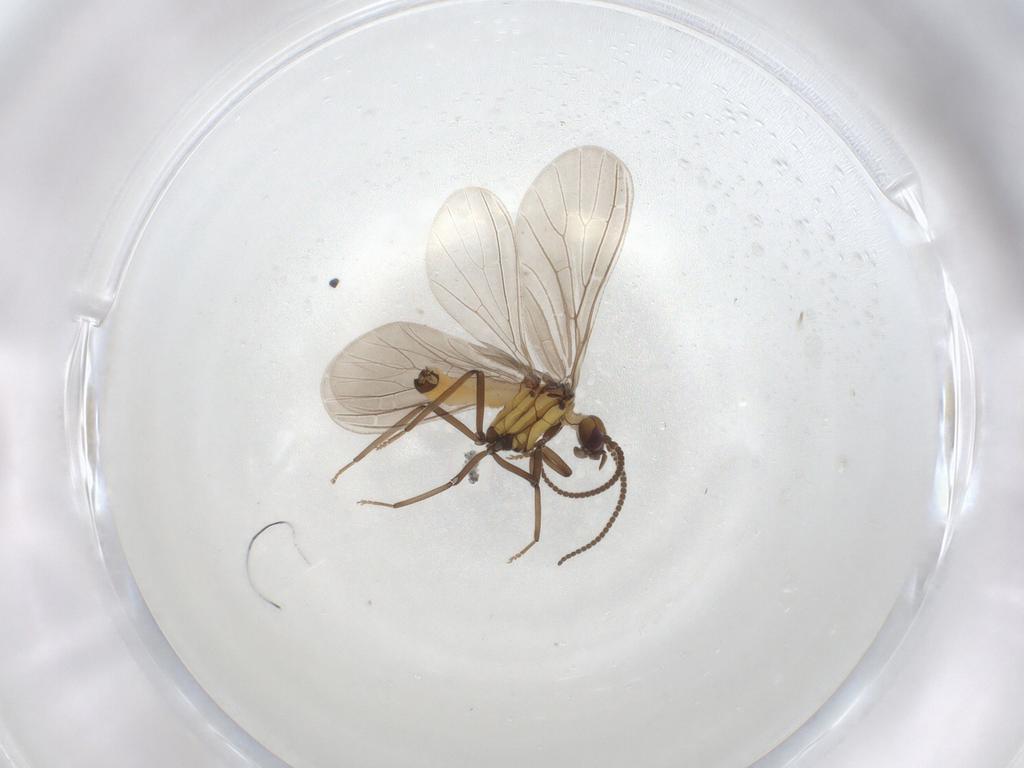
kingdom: Animalia
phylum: Arthropoda
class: Insecta
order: Neuroptera
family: Coniopterygidae
